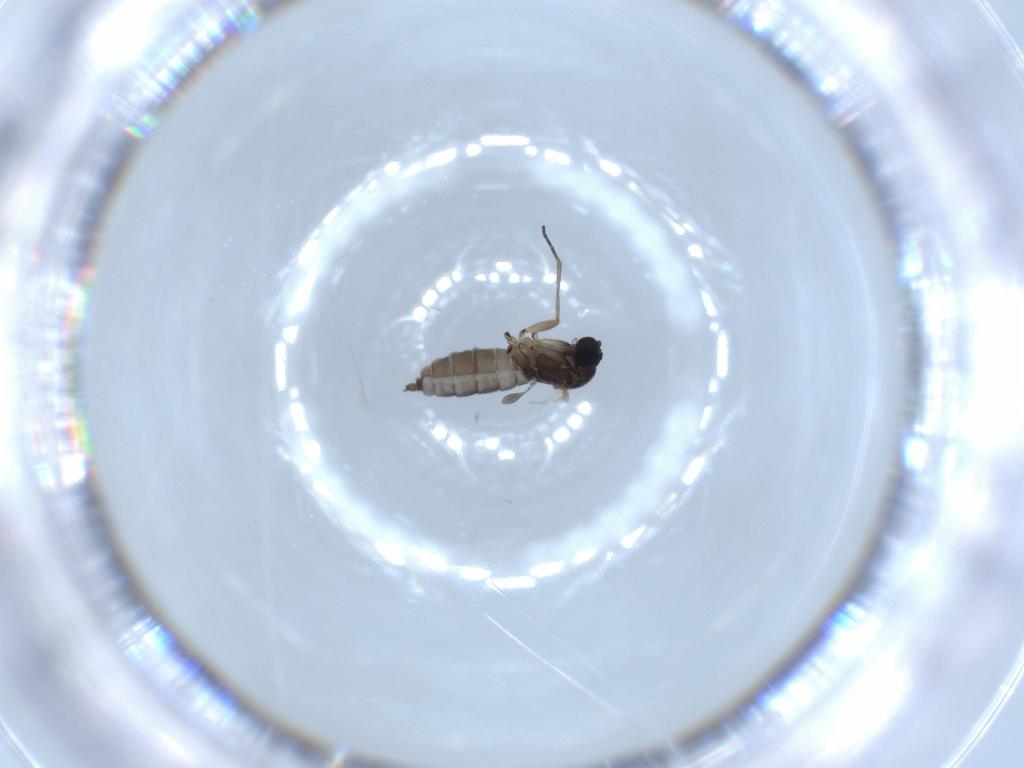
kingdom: Animalia
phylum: Arthropoda
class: Insecta
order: Diptera
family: Sciaridae
